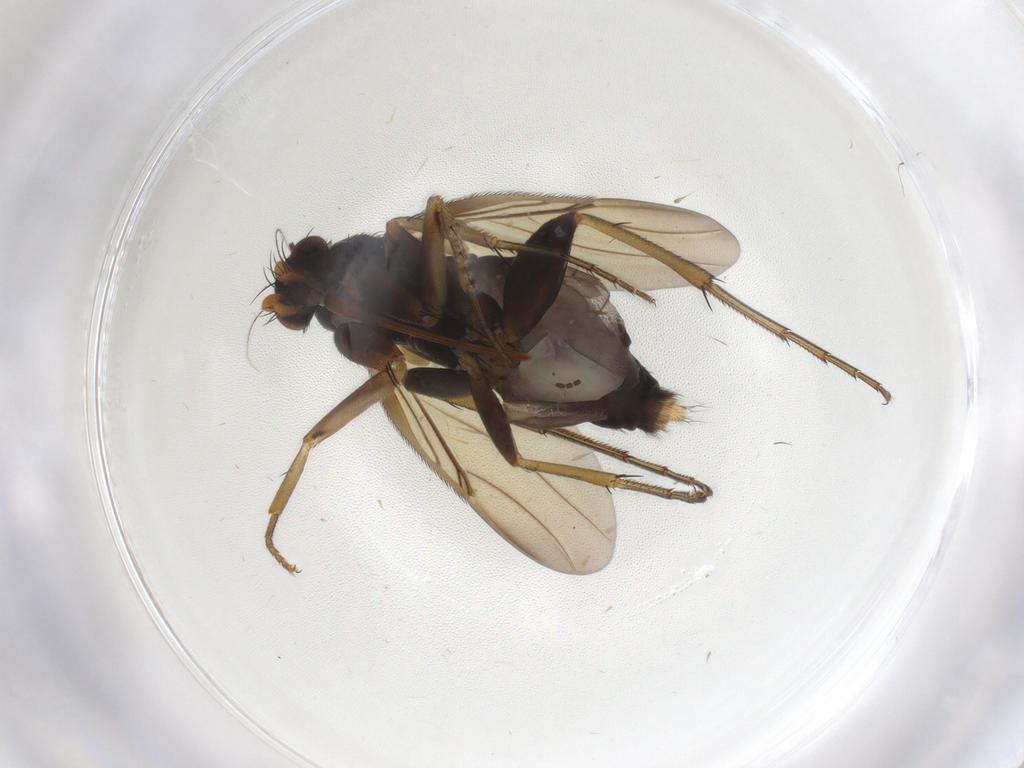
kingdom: Animalia
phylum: Arthropoda
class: Insecta
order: Diptera
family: Phoridae
